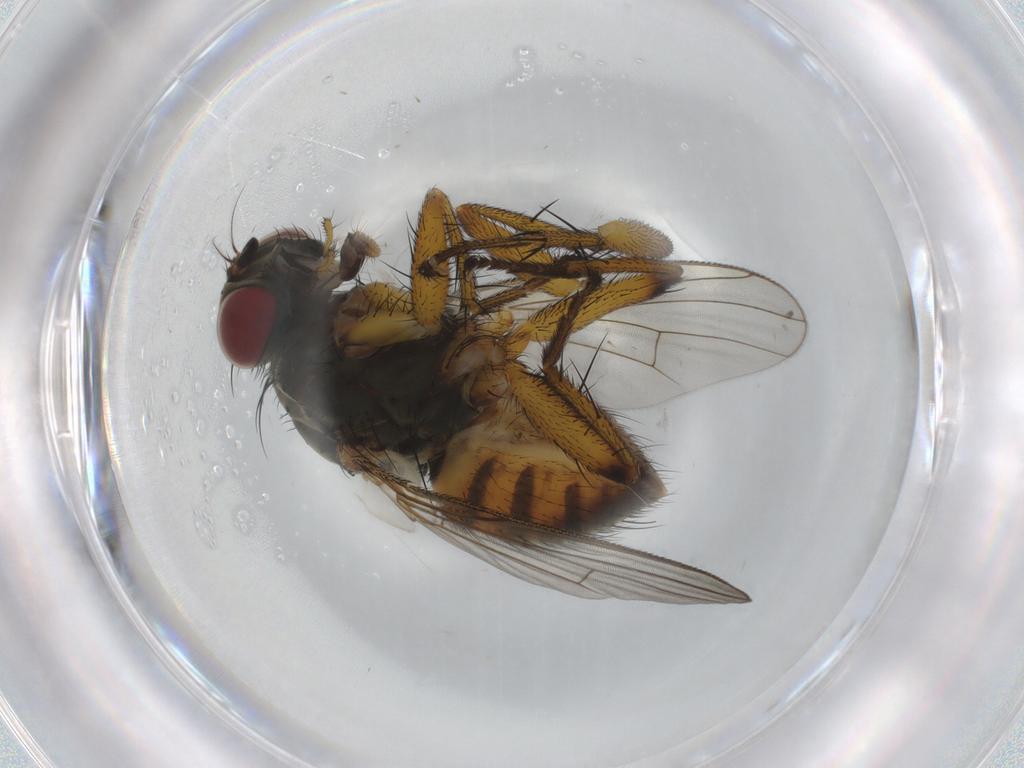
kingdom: Animalia
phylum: Arthropoda
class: Insecta
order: Diptera
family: Muscidae
